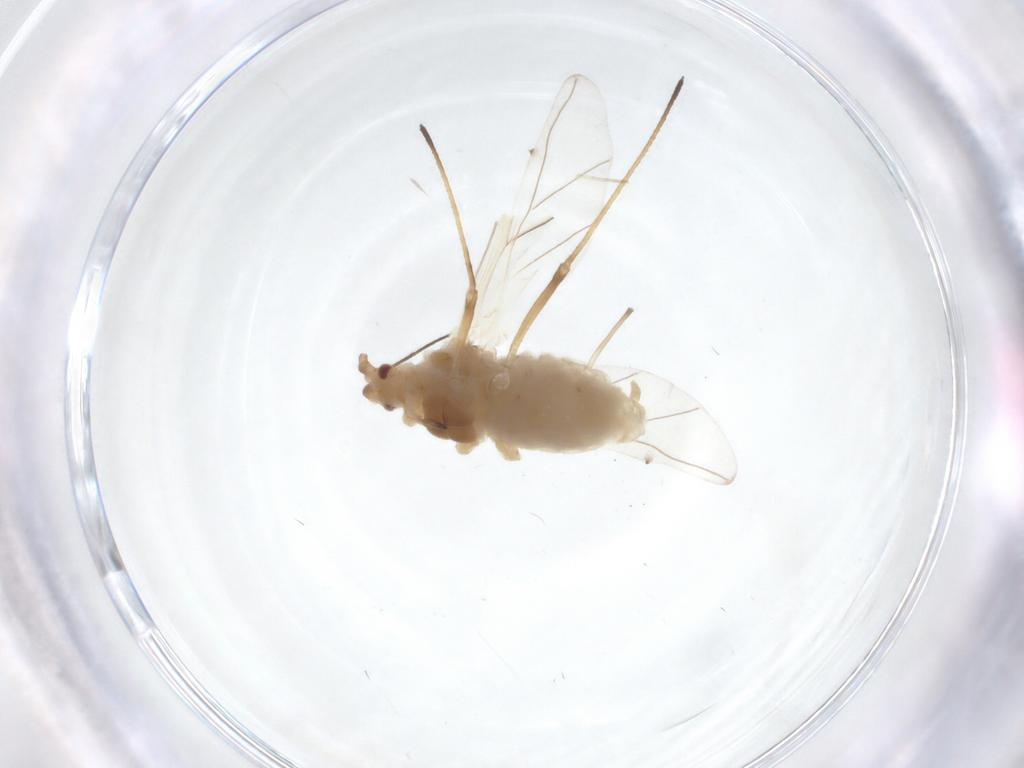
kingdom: Animalia
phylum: Arthropoda
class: Insecta
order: Hemiptera
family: Aphididae
